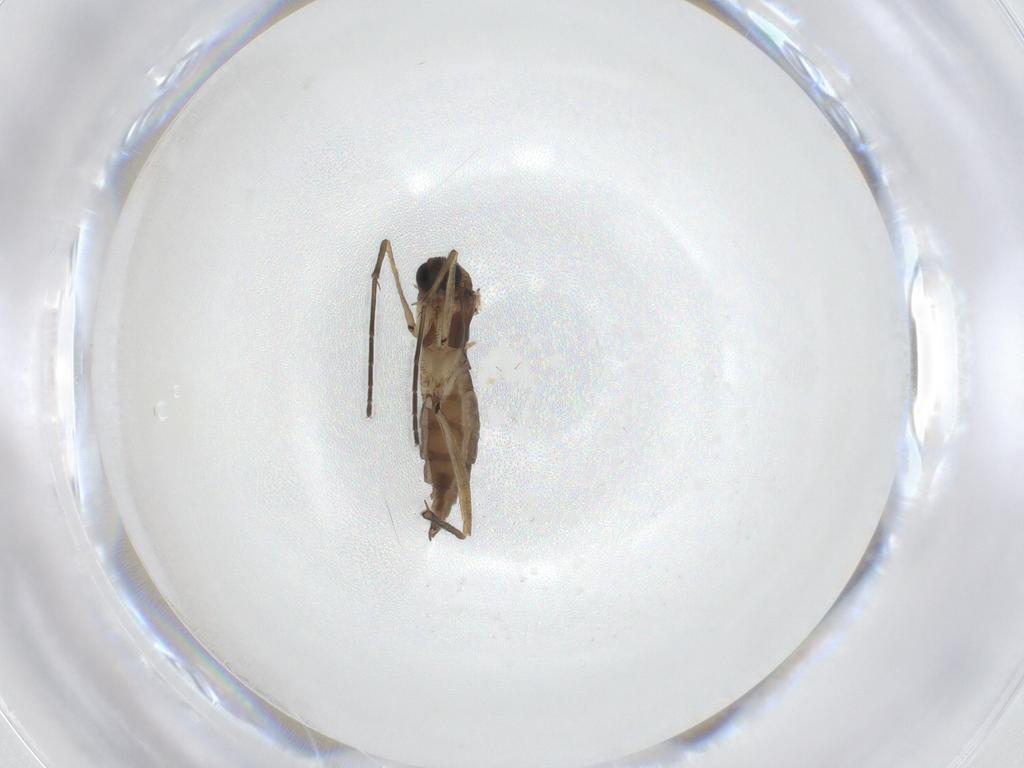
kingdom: Animalia
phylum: Arthropoda
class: Insecta
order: Diptera
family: Sciaridae
